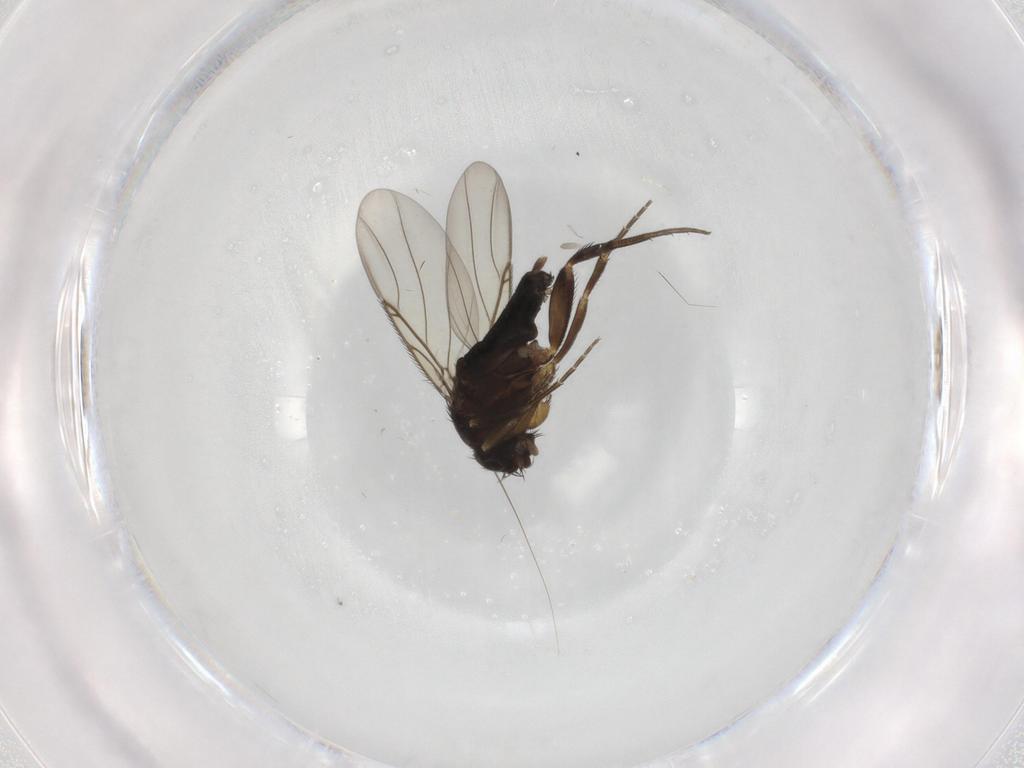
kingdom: Animalia
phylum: Arthropoda
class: Insecta
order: Diptera
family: Phoridae
